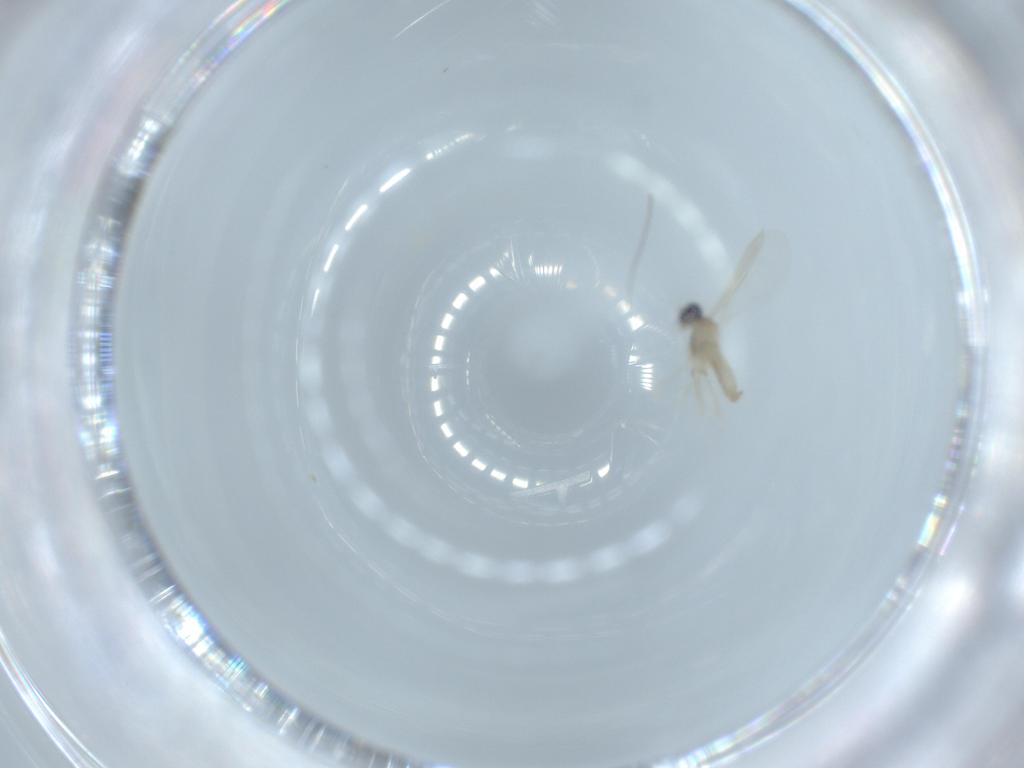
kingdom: Animalia
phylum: Arthropoda
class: Insecta
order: Diptera
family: Cecidomyiidae
